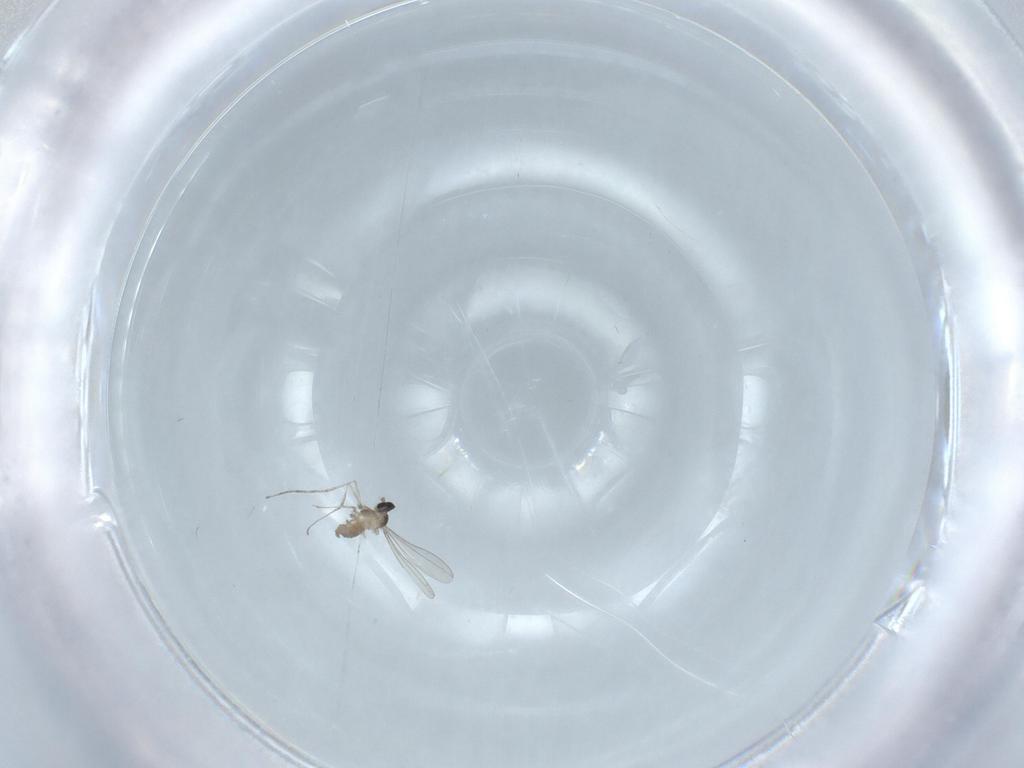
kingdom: Animalia
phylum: Arthropoda
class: Insecta
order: Diptera
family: Cecidomyiidae
